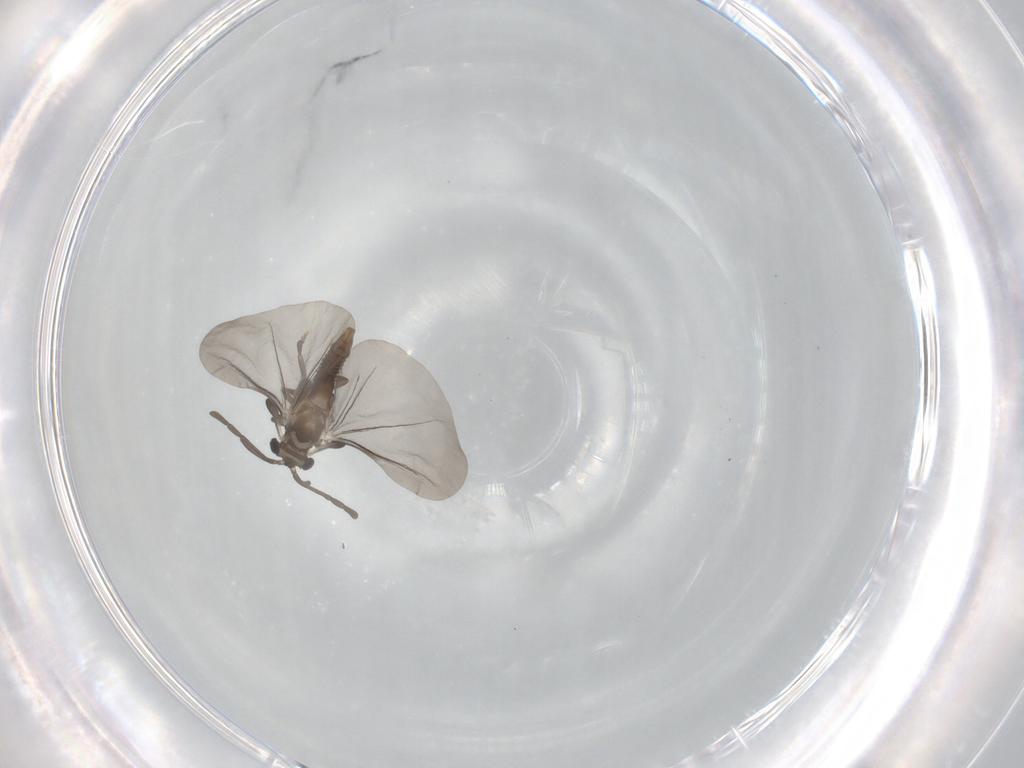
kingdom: Animalia
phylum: Arthropoda
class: Insecta
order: Strepsiptera
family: Myrmecolacidae
